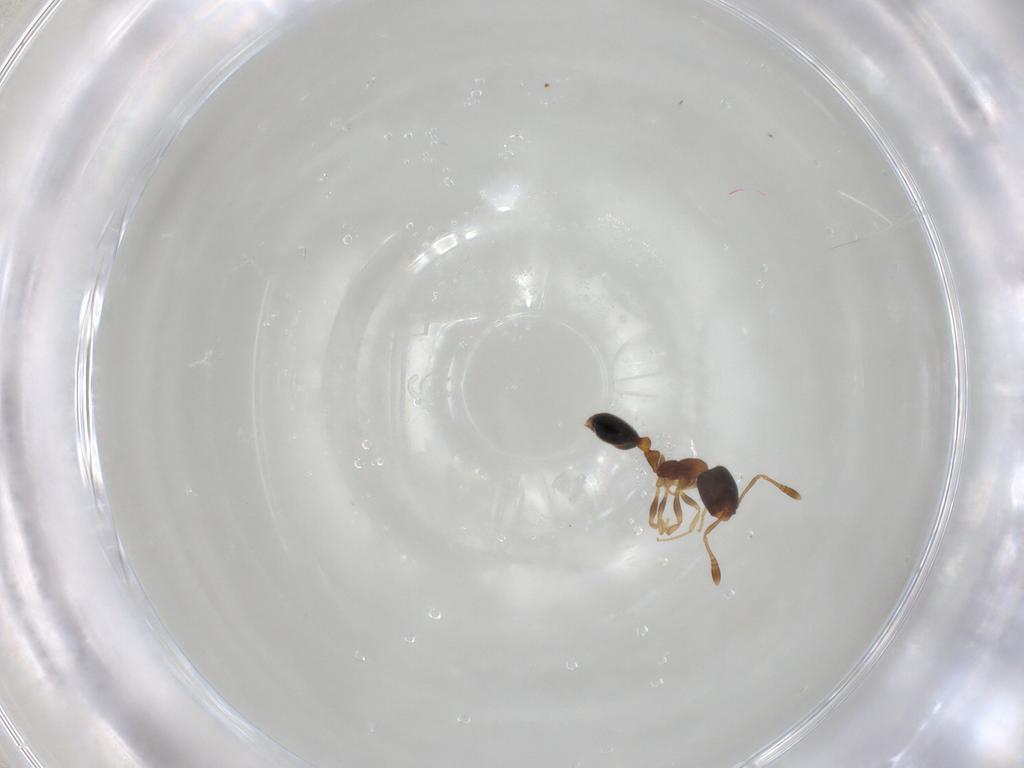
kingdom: Animalia
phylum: Arthropoda
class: Insecta
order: Hymenoptera
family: Formicidae
